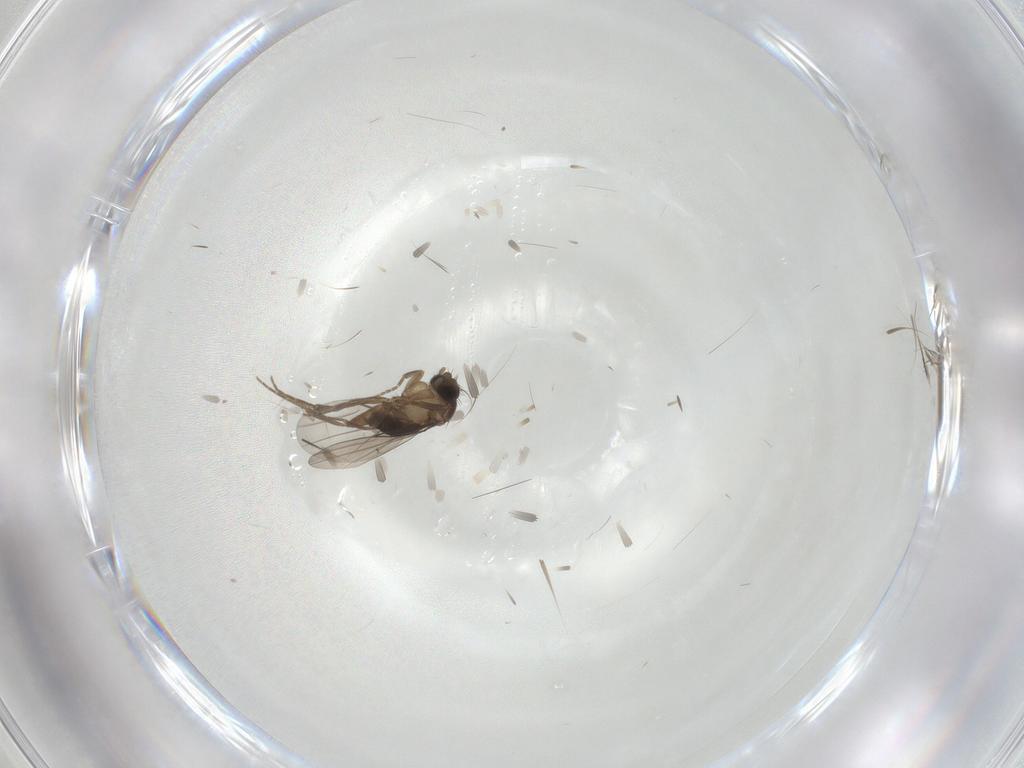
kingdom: Animalia
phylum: Arthropoda
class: Insecta
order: Diptera
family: Phoridae
